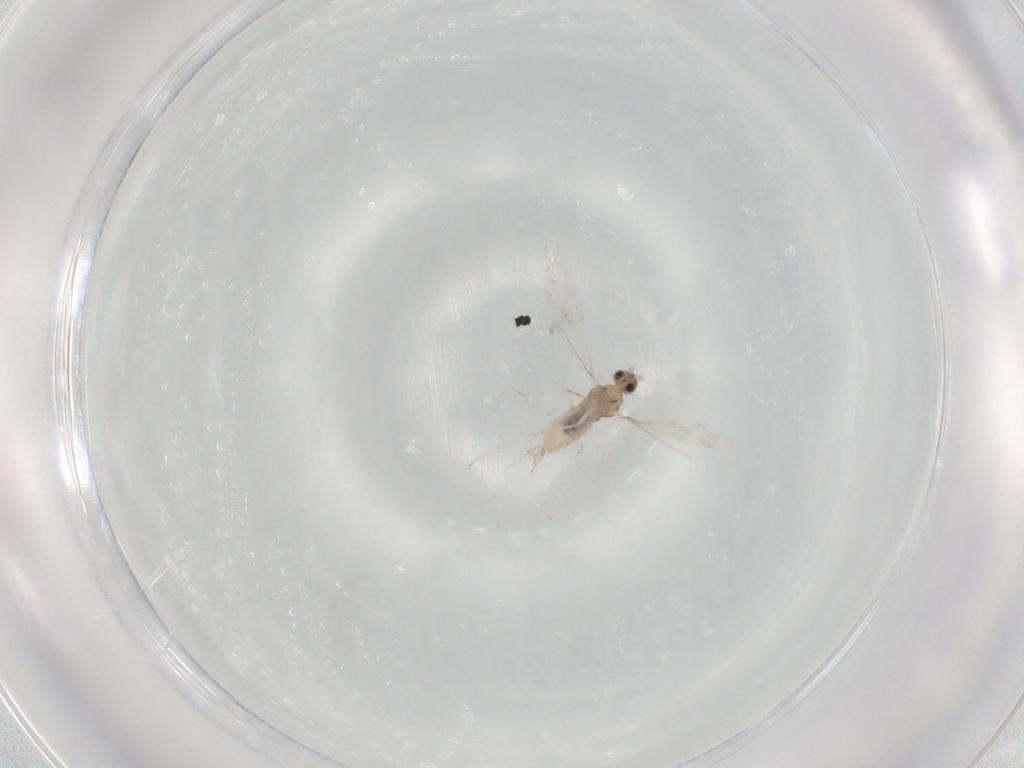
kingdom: Animalia
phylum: Arthropoda
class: Insecta
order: Diptera
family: Cecidomyiidae
